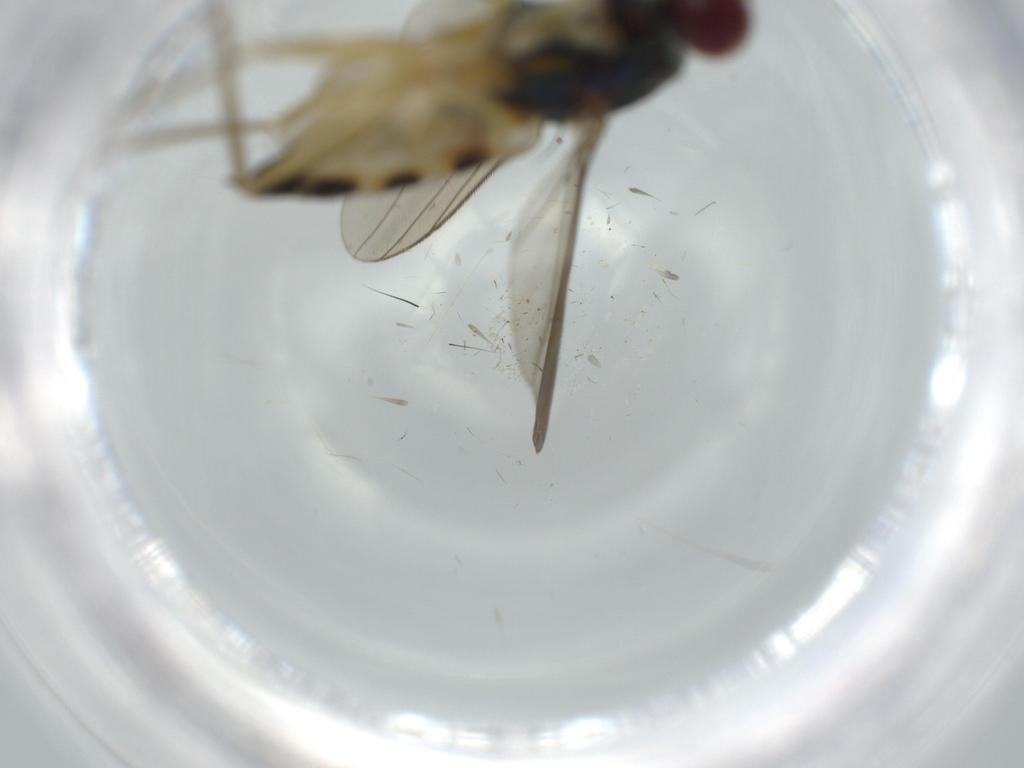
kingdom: Animalia
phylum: Arthropoda
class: Insecta
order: Diptera
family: Dolichopodidae
